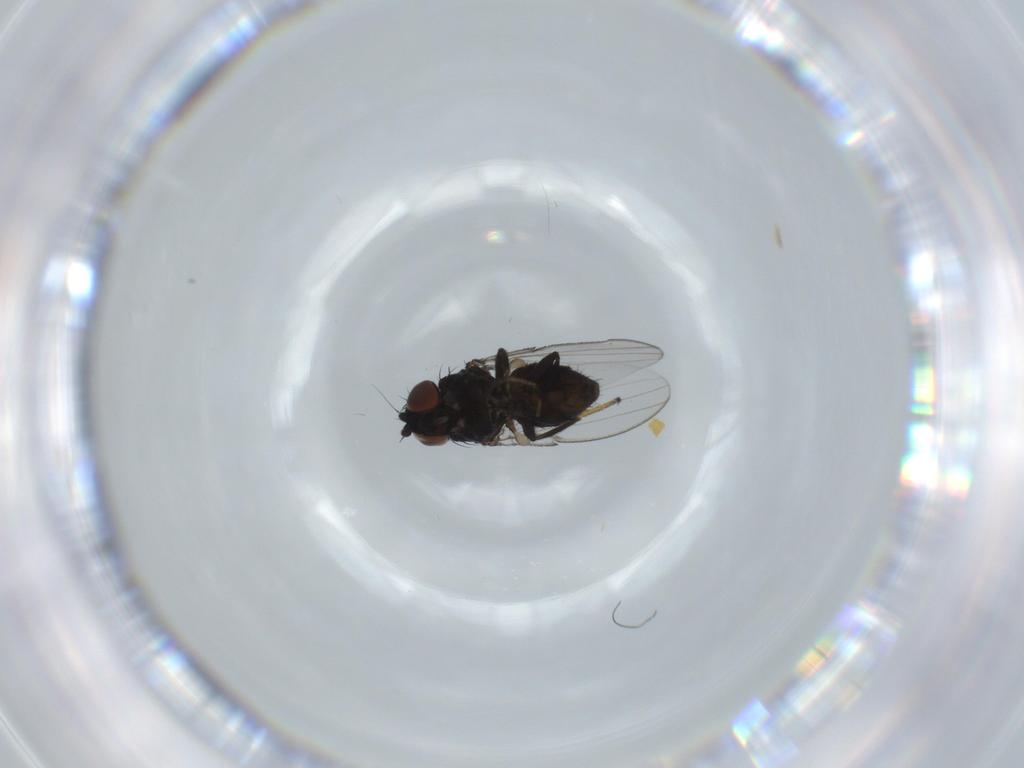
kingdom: Animalia
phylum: Arthropoda
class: Insecta
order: Diptera
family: Milichiidae
